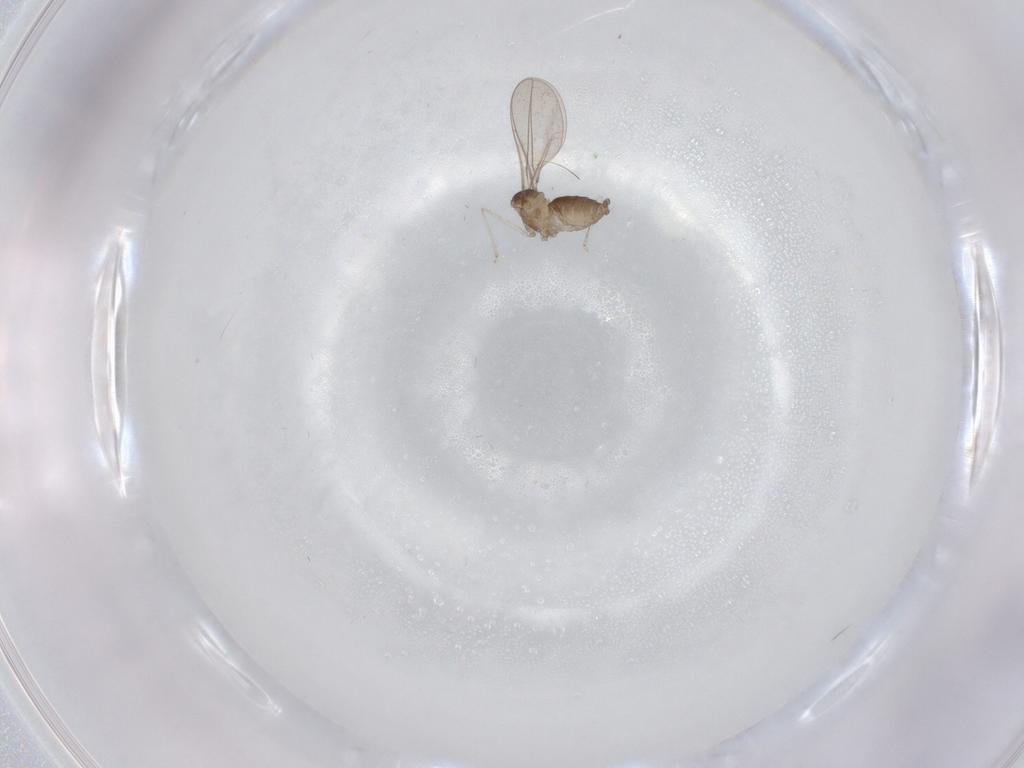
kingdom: Animalia
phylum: Arthropoda
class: Insecta
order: Diptera
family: Cecidomyiidae
